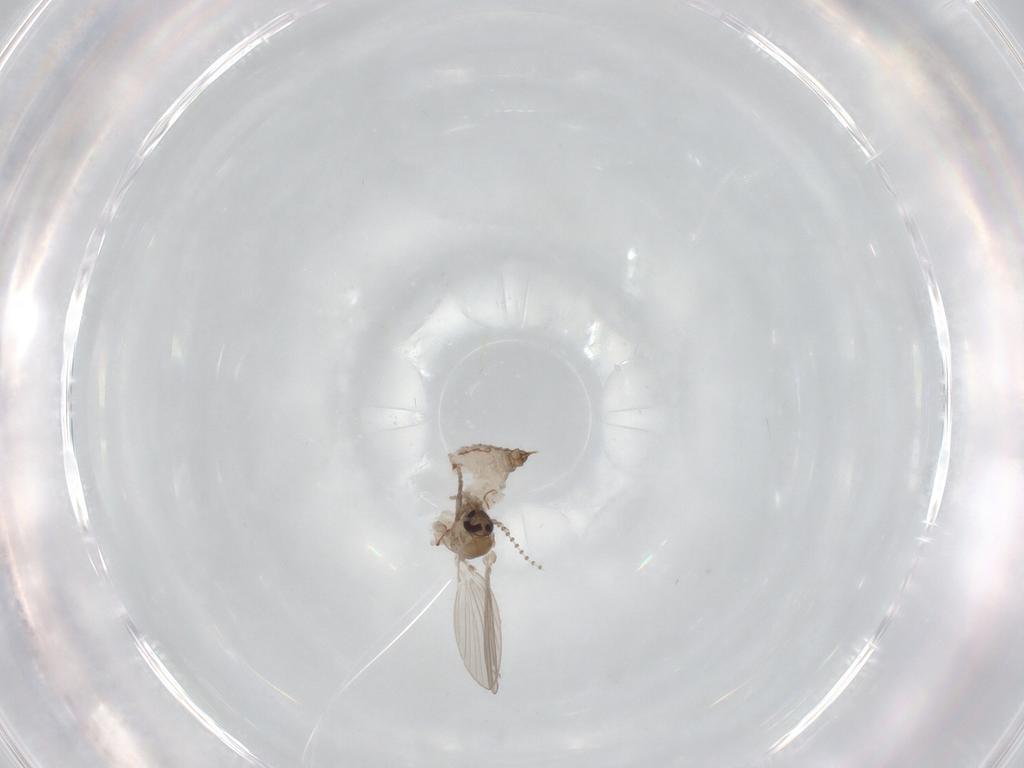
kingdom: Animalia
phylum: Arthropoda
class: Insecta
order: Diptera
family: Psychodidae
